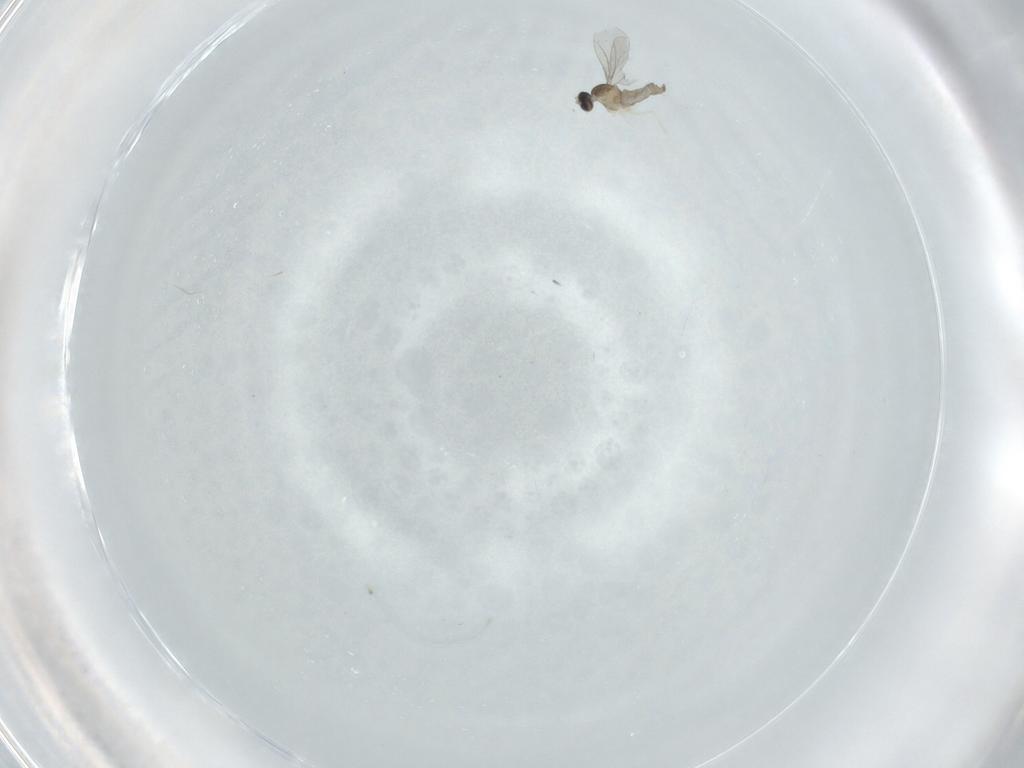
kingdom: Animalia
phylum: Arthropoda
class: Insecta
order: Diptera
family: Cecidomyiidae
